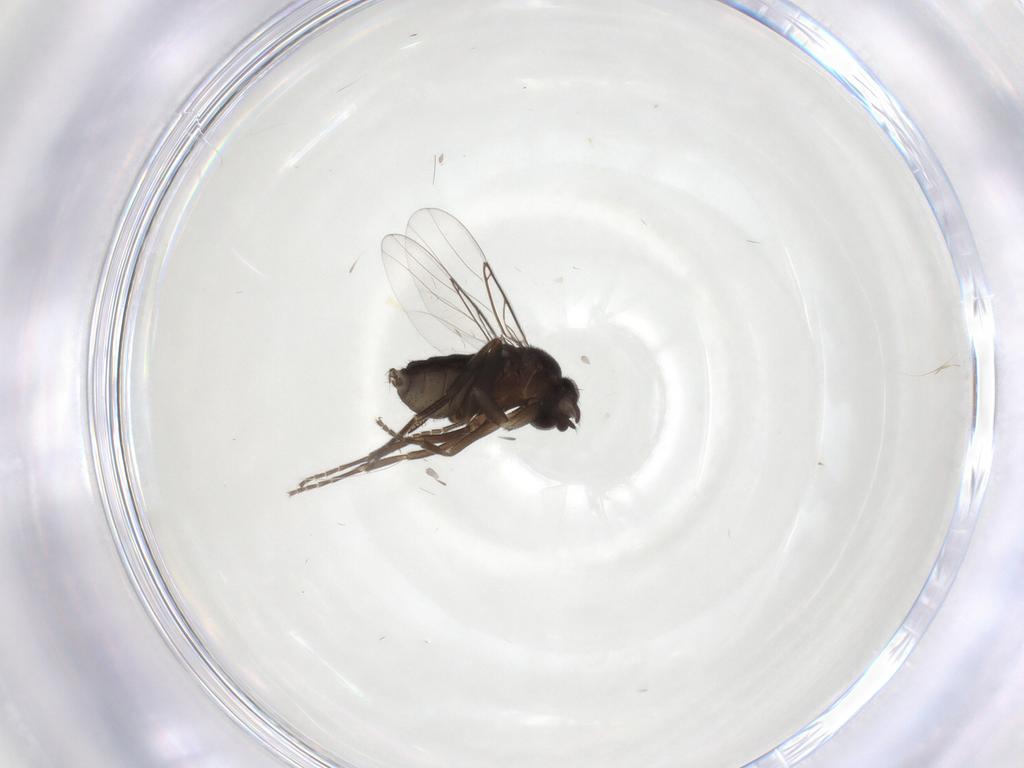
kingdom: Animalia
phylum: Arthropoda
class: Insecta
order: Diptera
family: Phoridae
